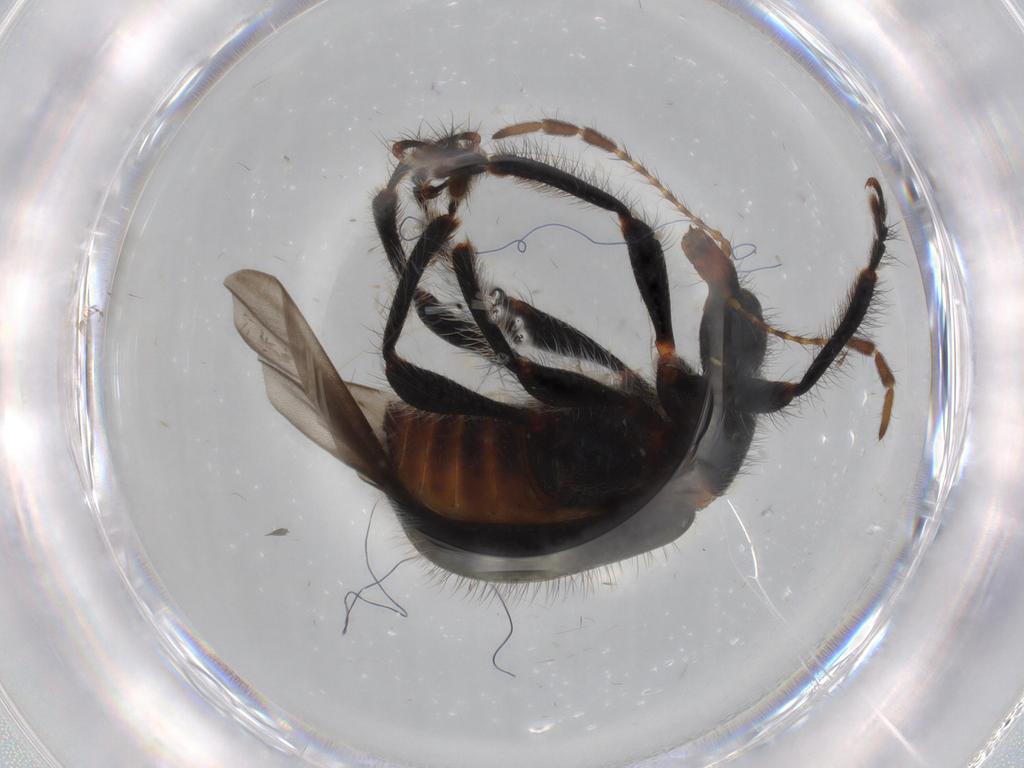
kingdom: Animalia
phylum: Arthropoda
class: Insecta
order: Coleoptera
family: Attelabidae
